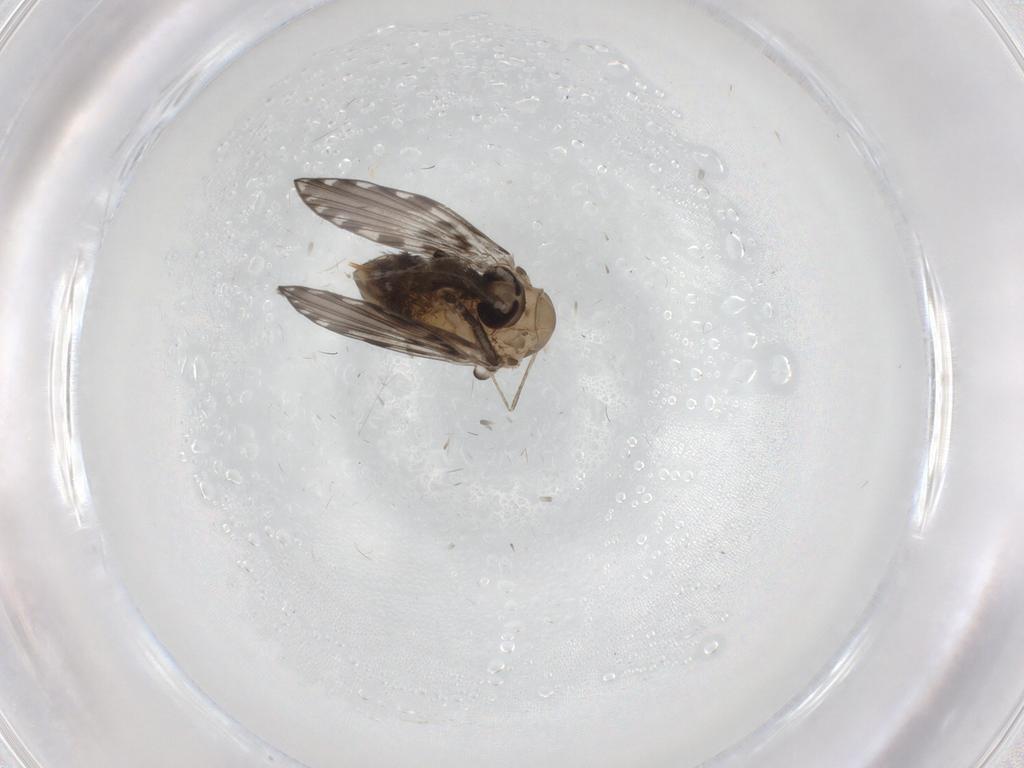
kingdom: Animalia
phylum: Arthropoda
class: Insecta
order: Diptera
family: Psychodidae
